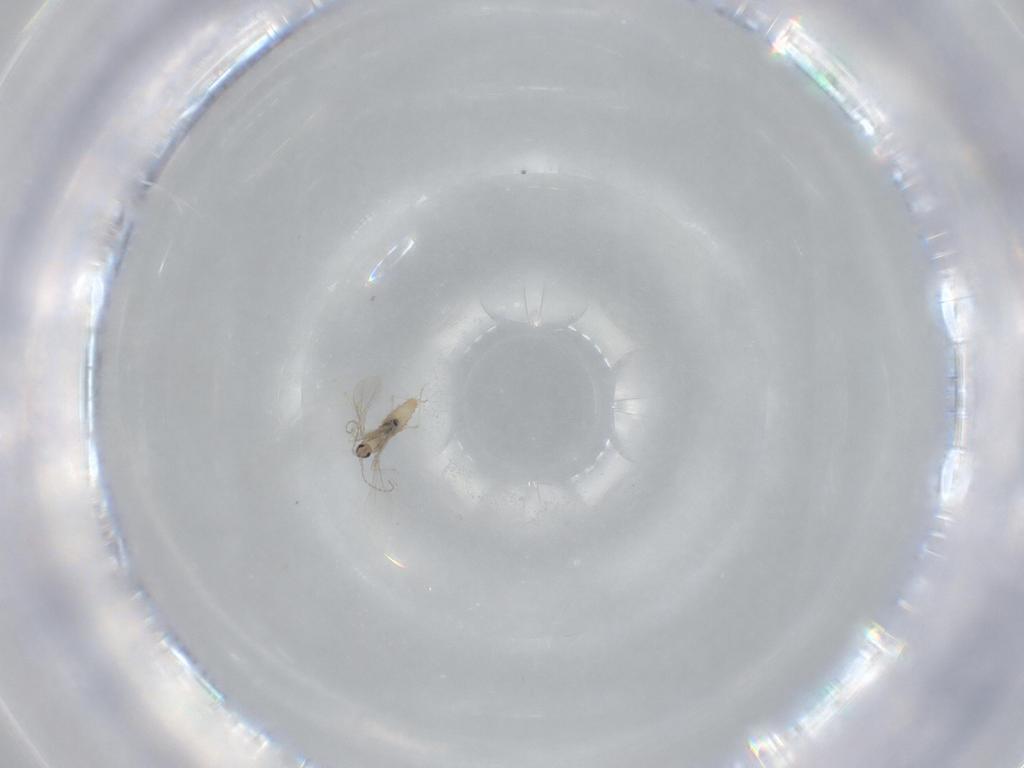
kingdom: Animalia
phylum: Arthropoda
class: Insecta
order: Diptera
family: Cecidomyiidae
